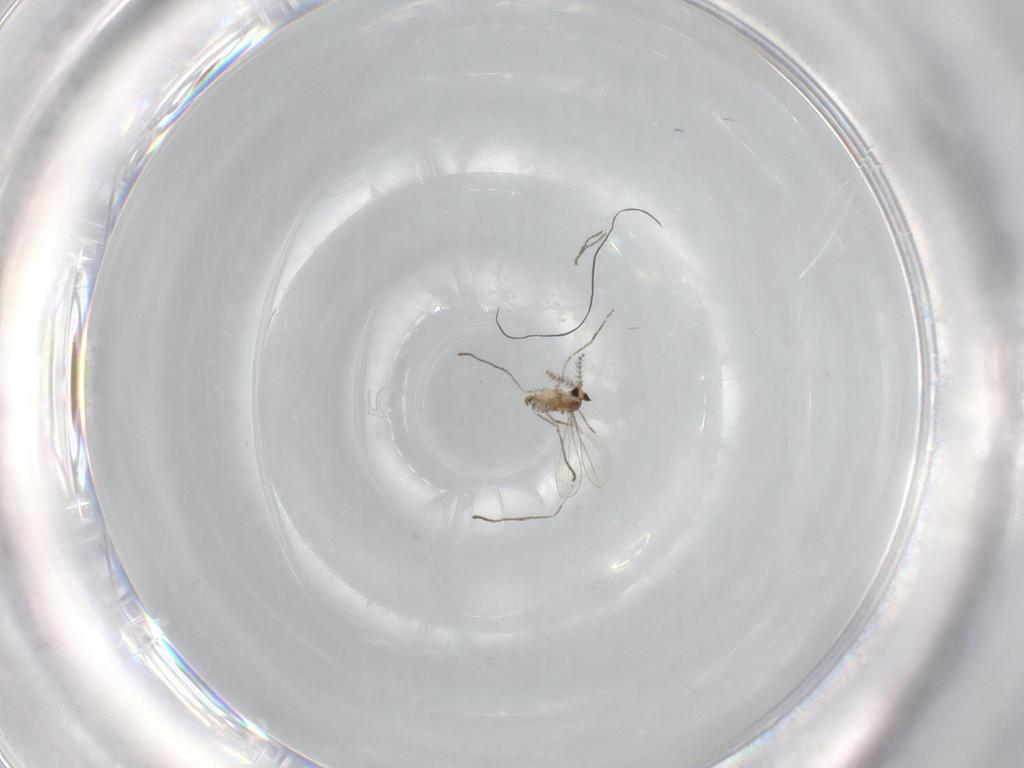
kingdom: Animalia
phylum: Arthropoda
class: Insecta
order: Diptera
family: Cecidomyiidae
